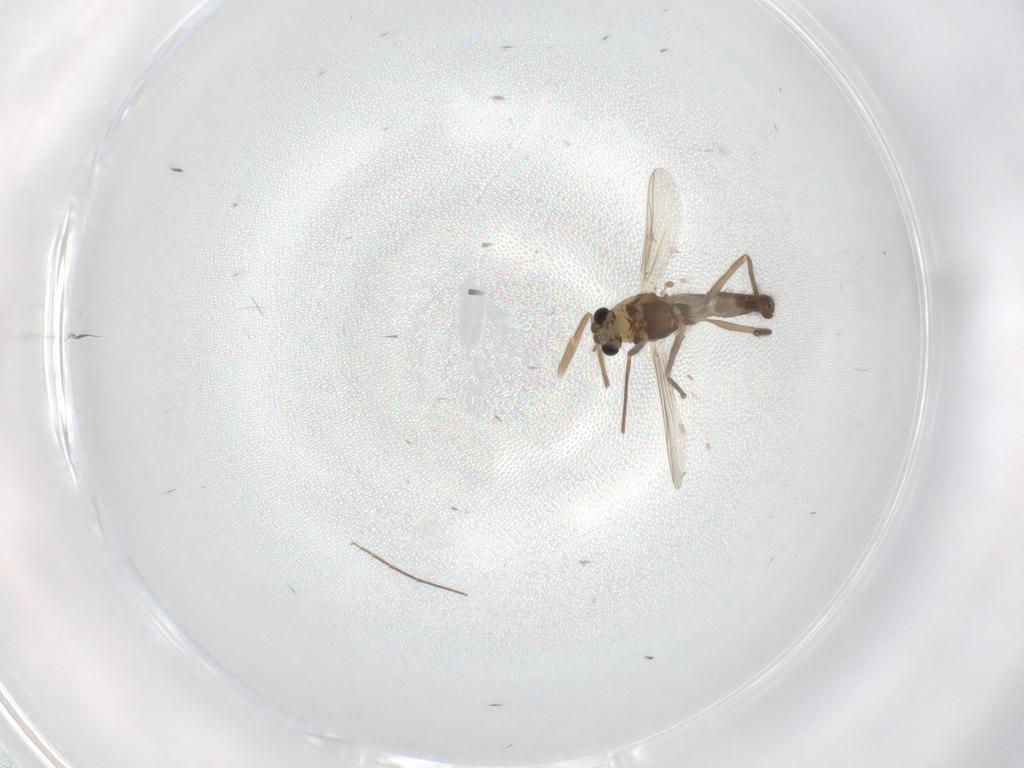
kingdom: Animalia
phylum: Arthropoda
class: Insecta
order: Diptera
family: Chironomidae
